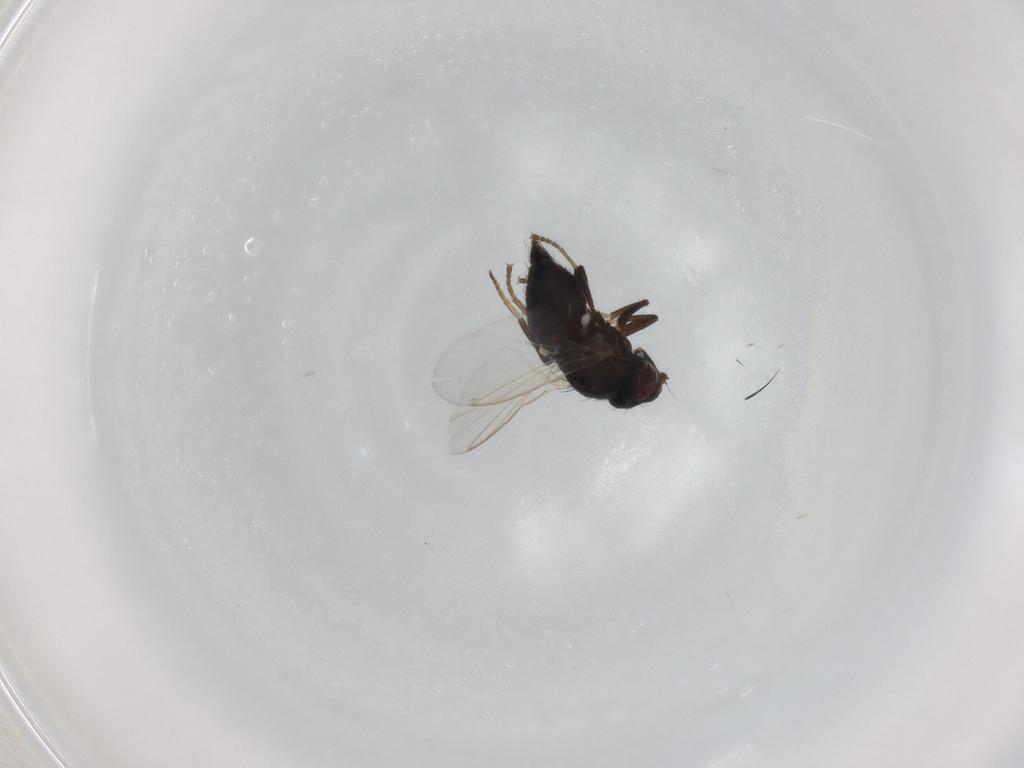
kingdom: Animalia
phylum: Arthropoda
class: Insecta
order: Diptera
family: Agromyzidae
